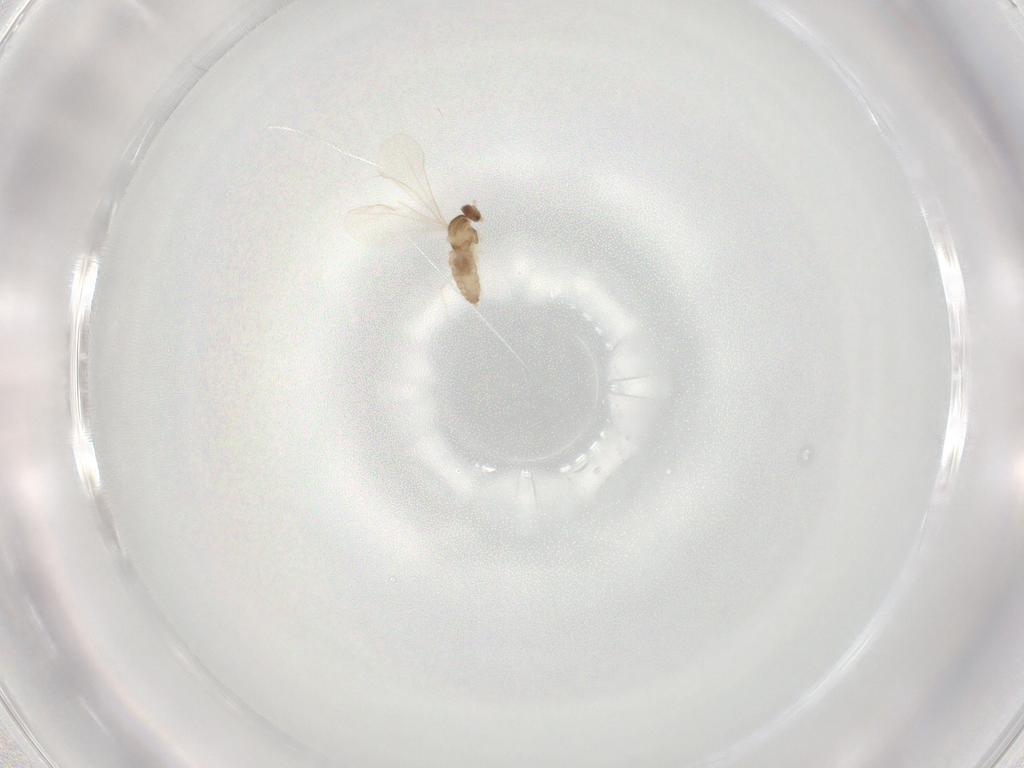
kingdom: Animalia
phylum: Arthropoda
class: Insecta
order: Diptera
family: Cecidomyiidae
